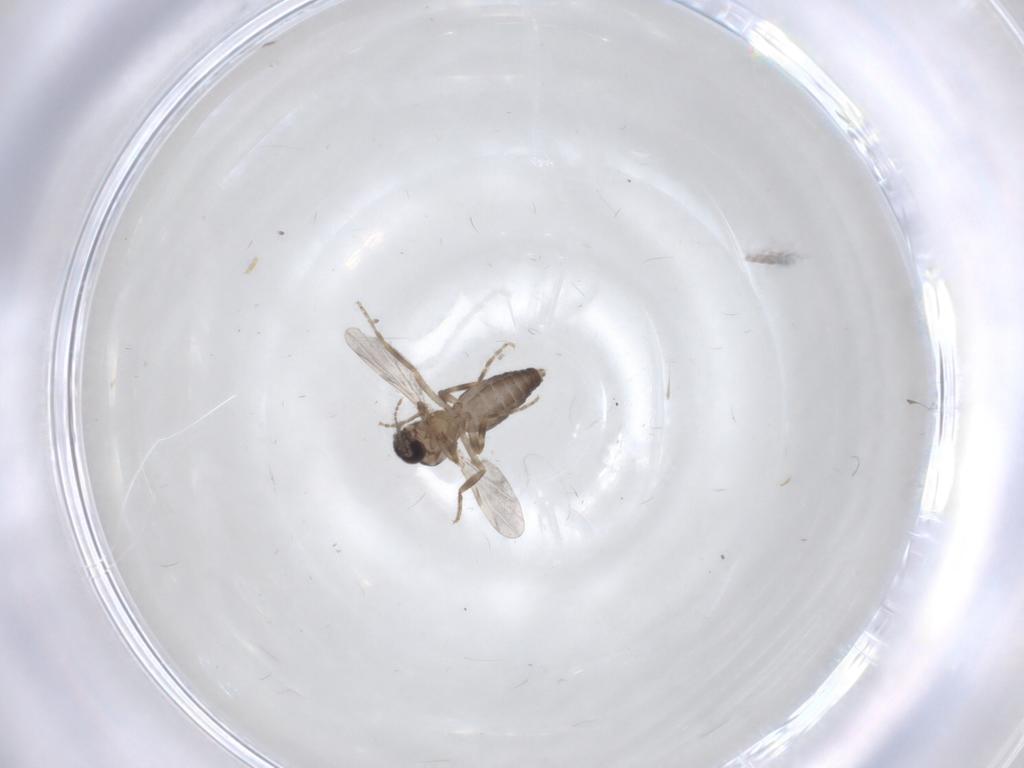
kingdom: Animalia
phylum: Arthropoda
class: Insecta
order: Diptera
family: Ceratopogonidae
